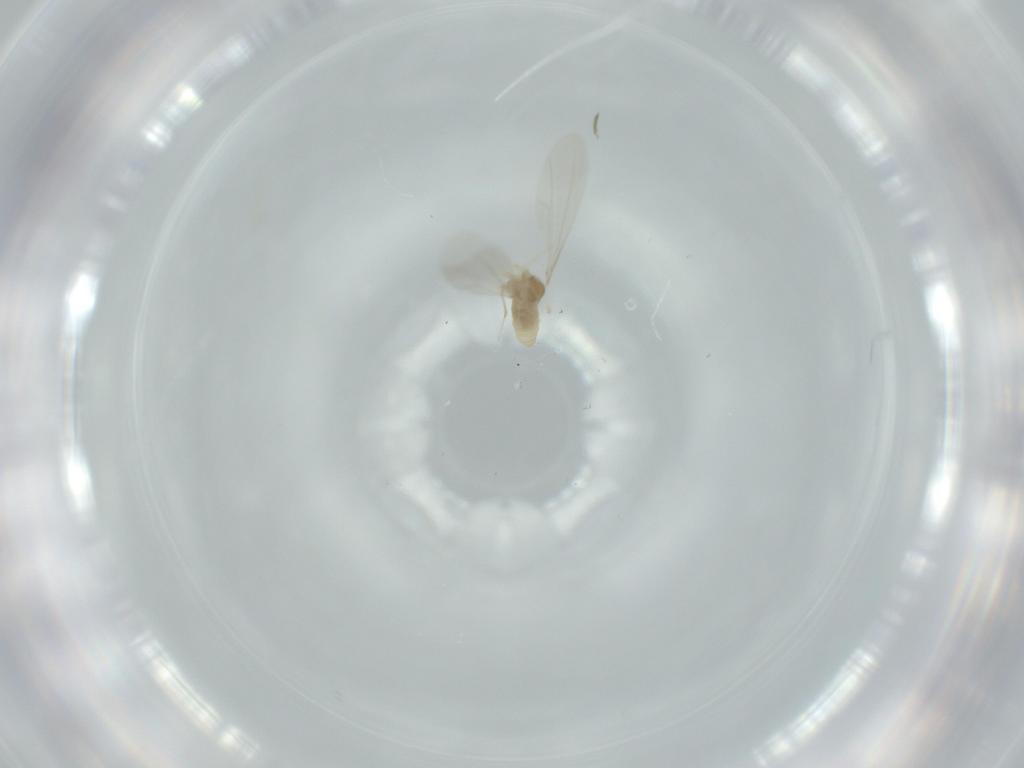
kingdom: Animalia
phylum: Arthropoda
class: Insecta
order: Diptera
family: Cecidomyiidae
